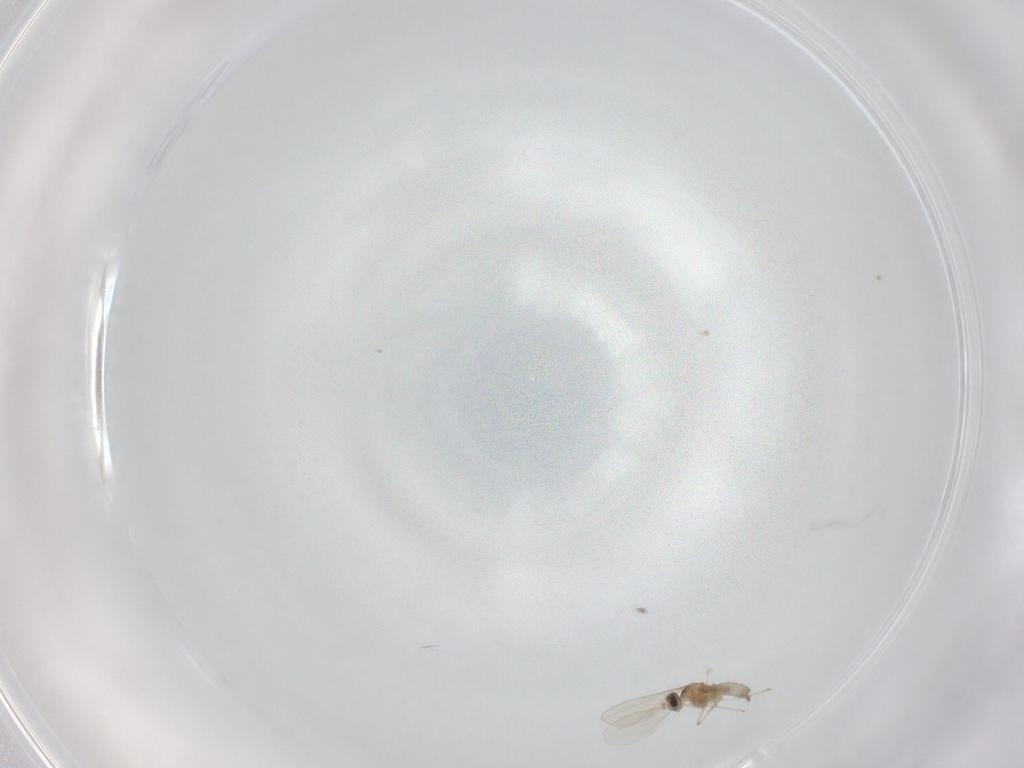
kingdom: Animalia
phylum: Arthropoda
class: Insecta
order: Diptera
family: Cecidomyiidae
